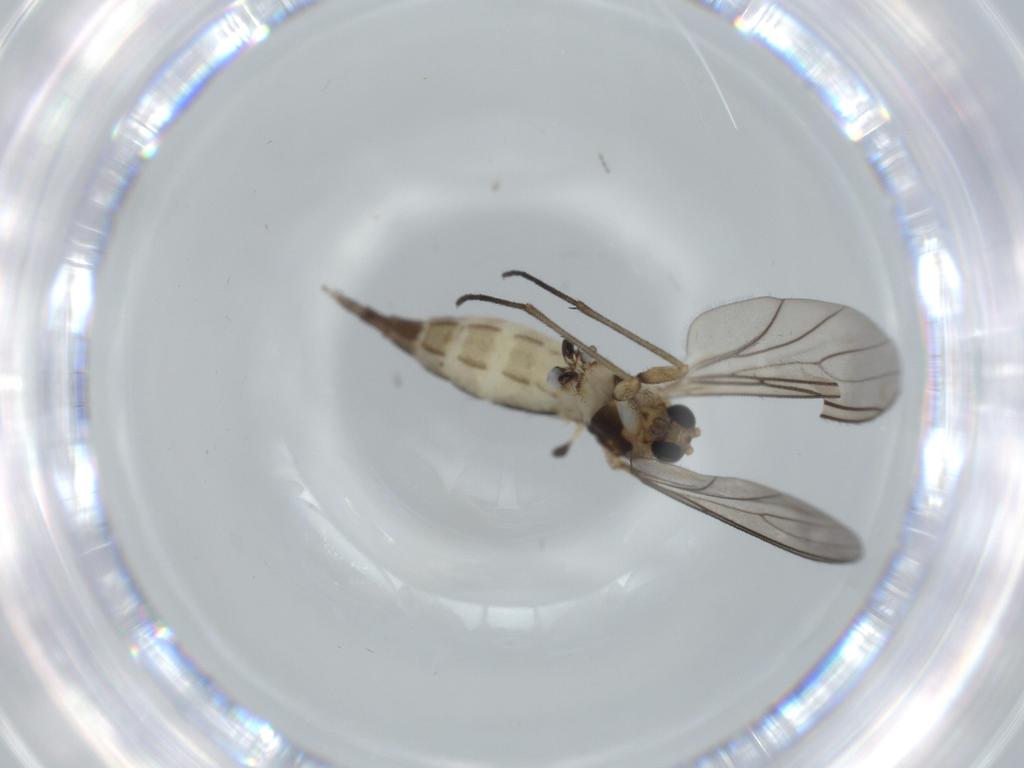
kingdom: Animalia
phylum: Arthropoda
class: Insecta
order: Diptera
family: Sciaridae
